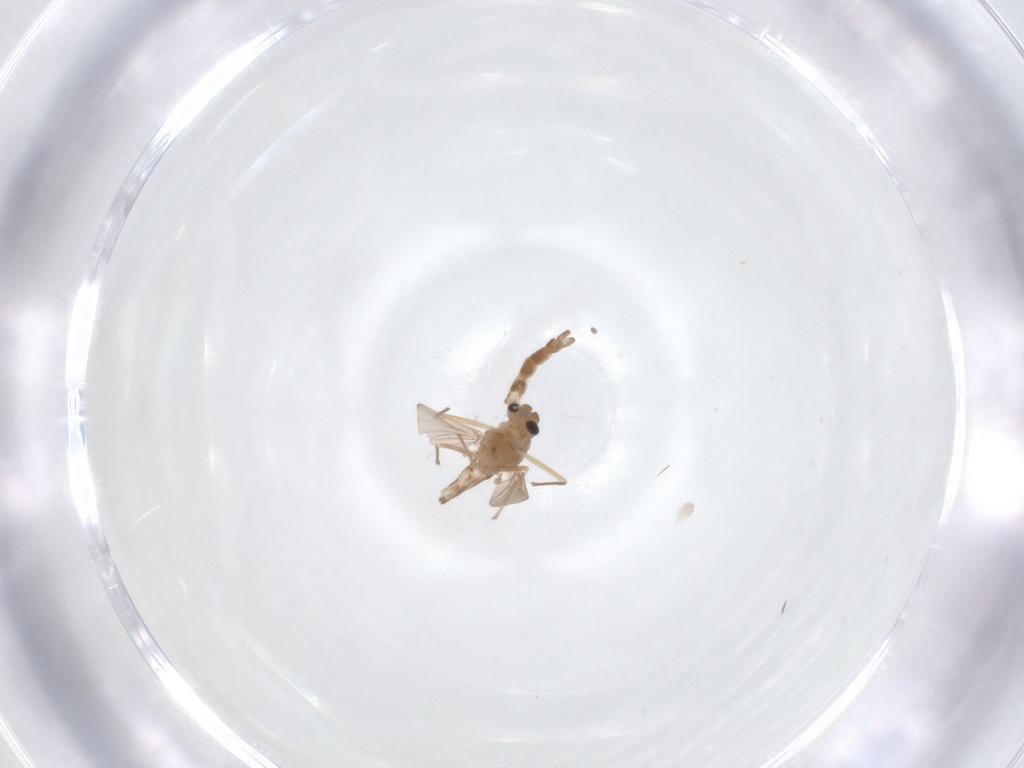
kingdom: Animalia
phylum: Arthropoda
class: Insecta
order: Diptera
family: Chironomidae
